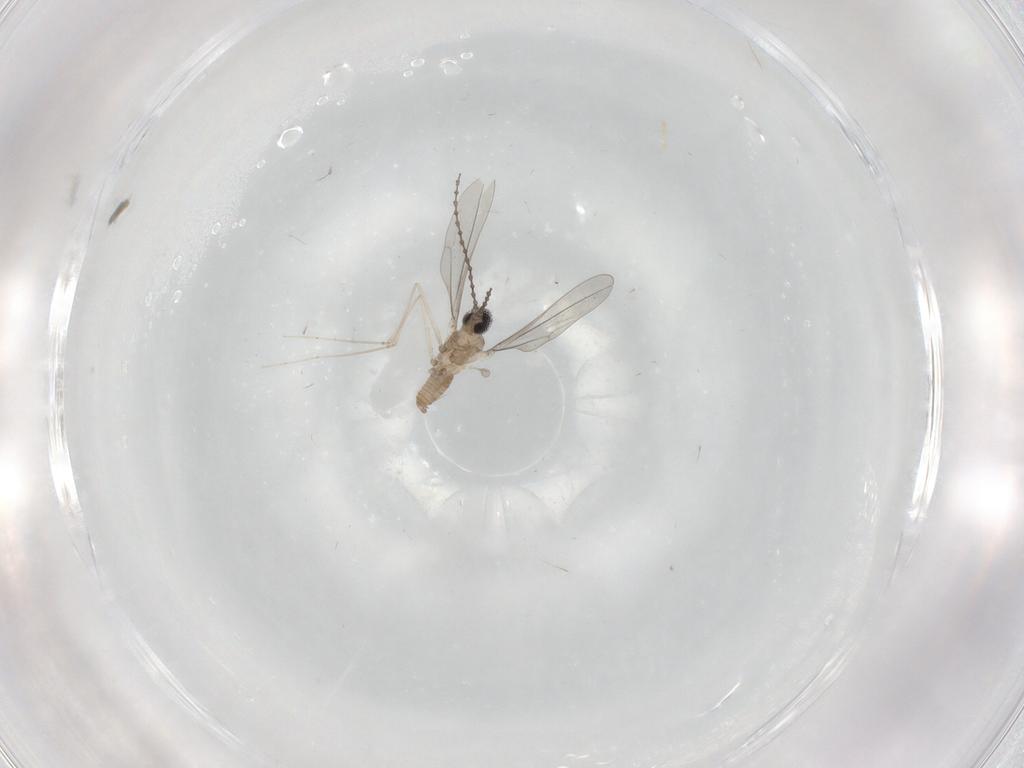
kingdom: Animalia
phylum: Arthropoda
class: Insecta
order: Diptera
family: Cecidomyiidae
